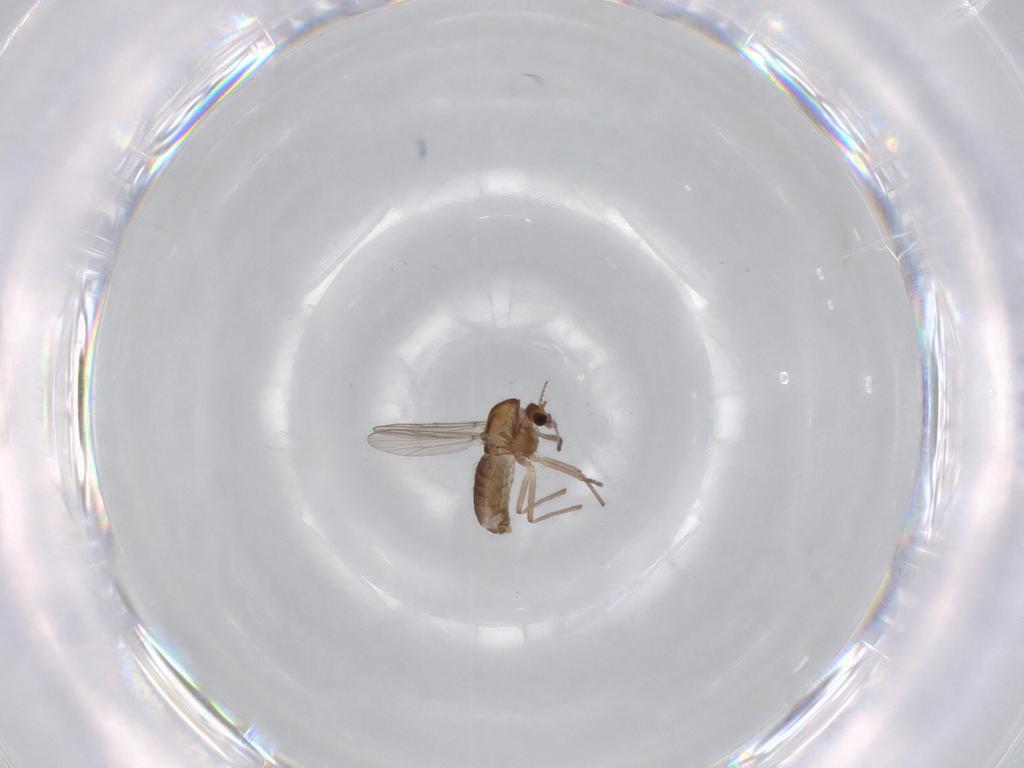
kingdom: Animalia
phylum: Arthropoda
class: Insecta
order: Diptera
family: Chironomidae
